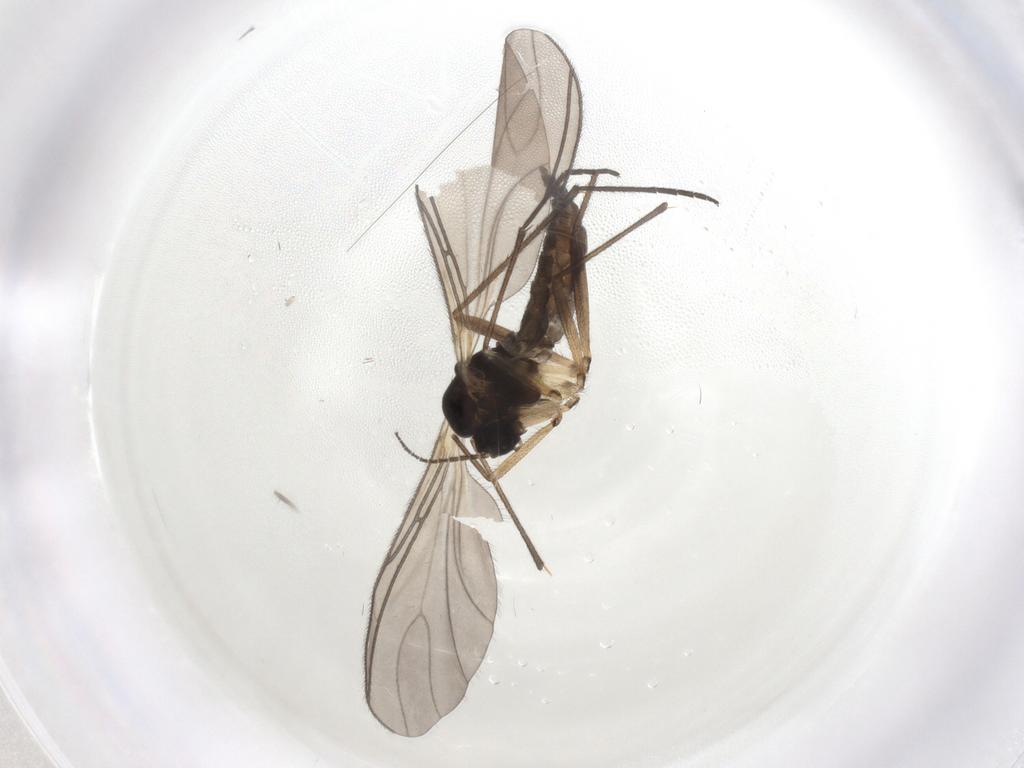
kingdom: Animalia
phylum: Arthropoda
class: Insecta
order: Diptera
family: Sciaridae
